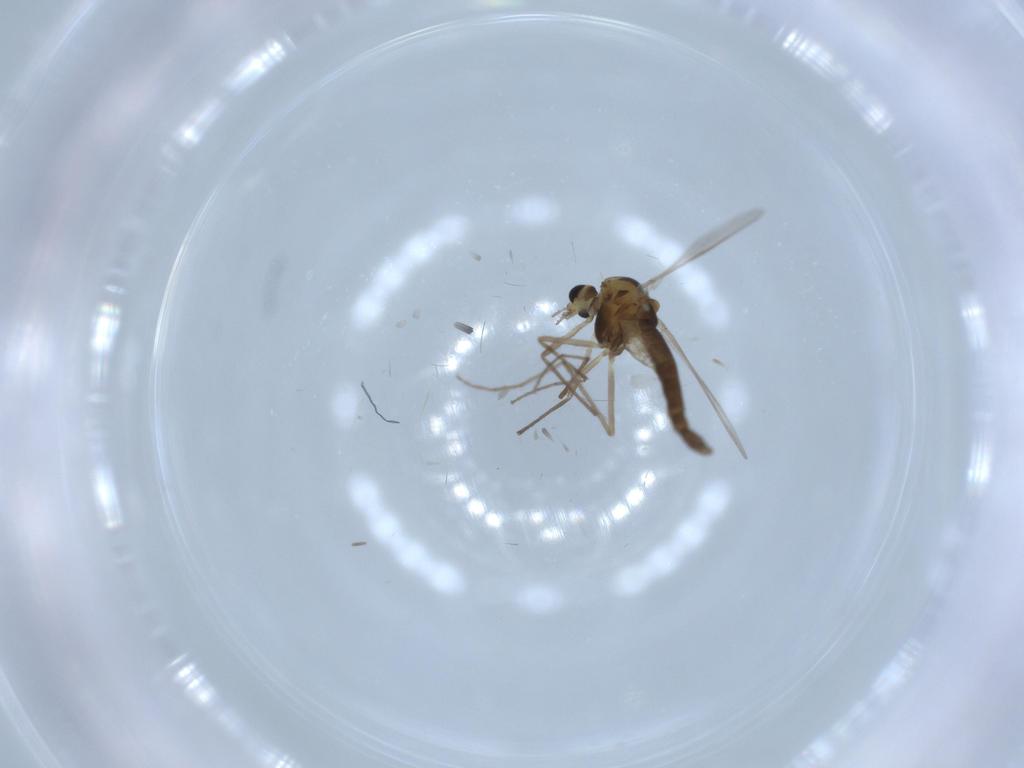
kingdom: Animalia
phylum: Arthropoda
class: Insecta
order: Diptera
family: Chironomidae
